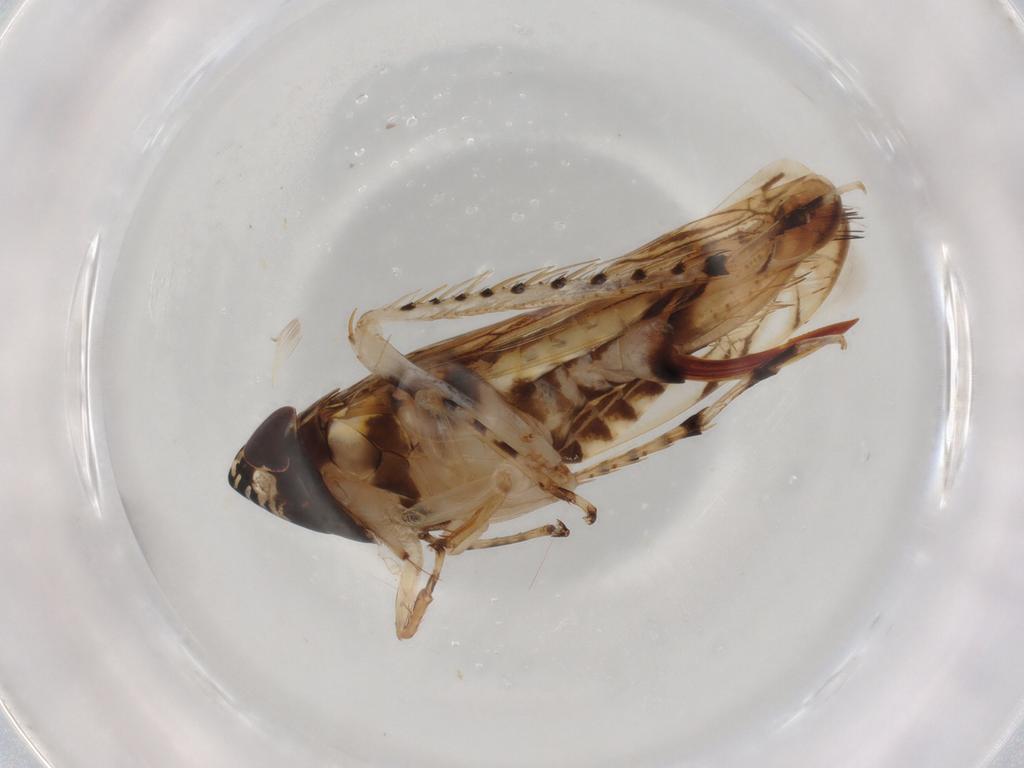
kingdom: Animalia
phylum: Arthropoda
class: Insecta
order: Hemiptera
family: Cicadellidae
